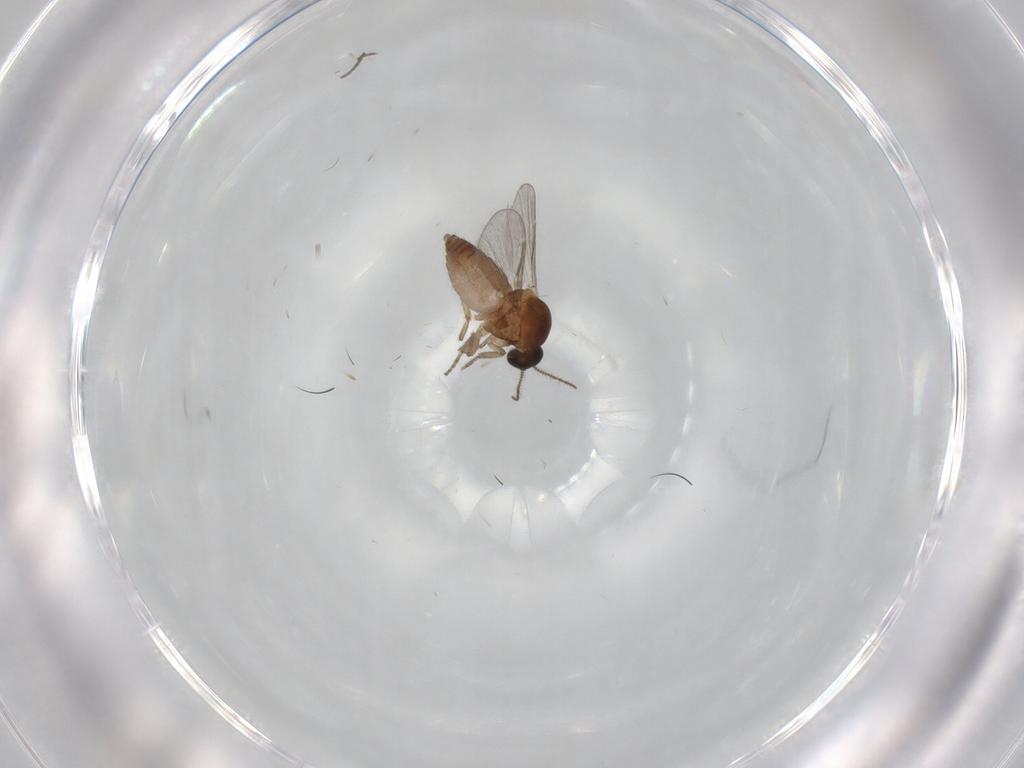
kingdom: Animalia
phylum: Arthropoda
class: Insecta
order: Diptera
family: Sciaridae
